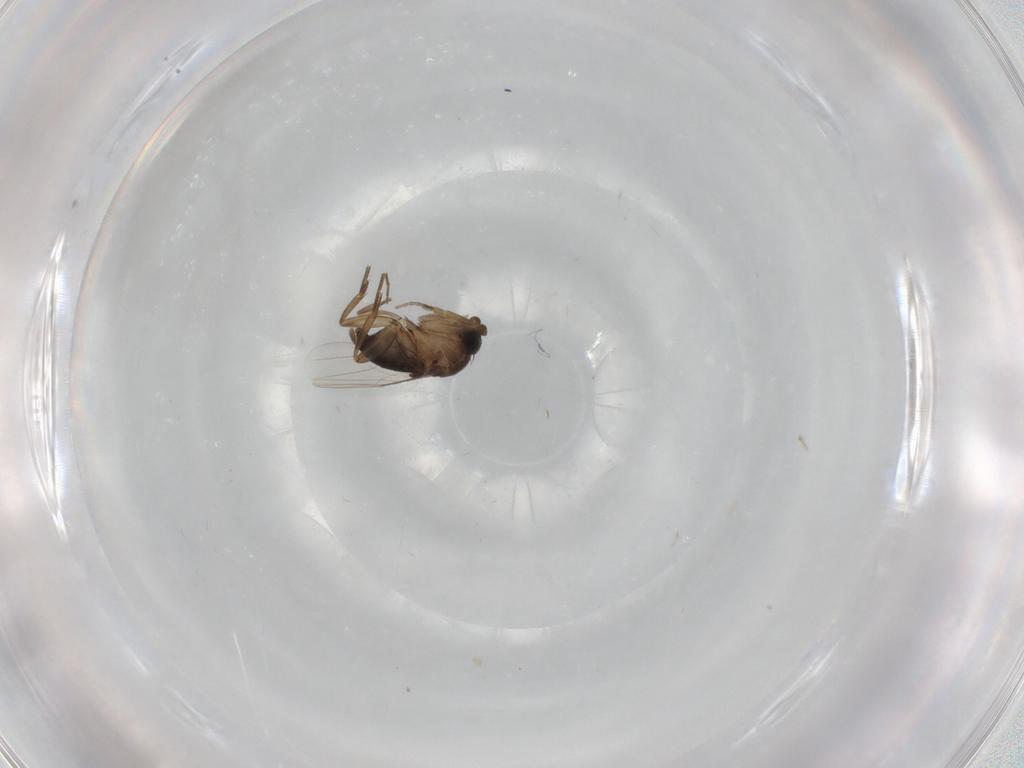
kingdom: Animalia
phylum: Arthropoda
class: Insecta
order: Diptera
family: Phoridae
